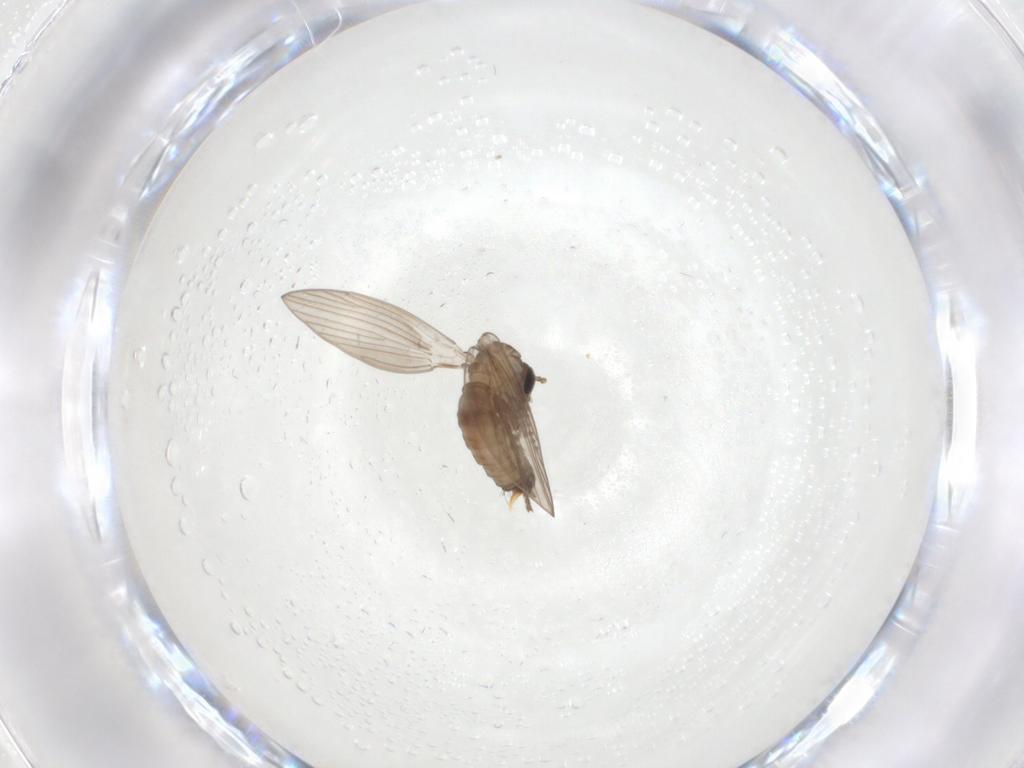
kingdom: Animalia
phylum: Arthropoda
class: Insecta
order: Diptera
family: Psychodidae
